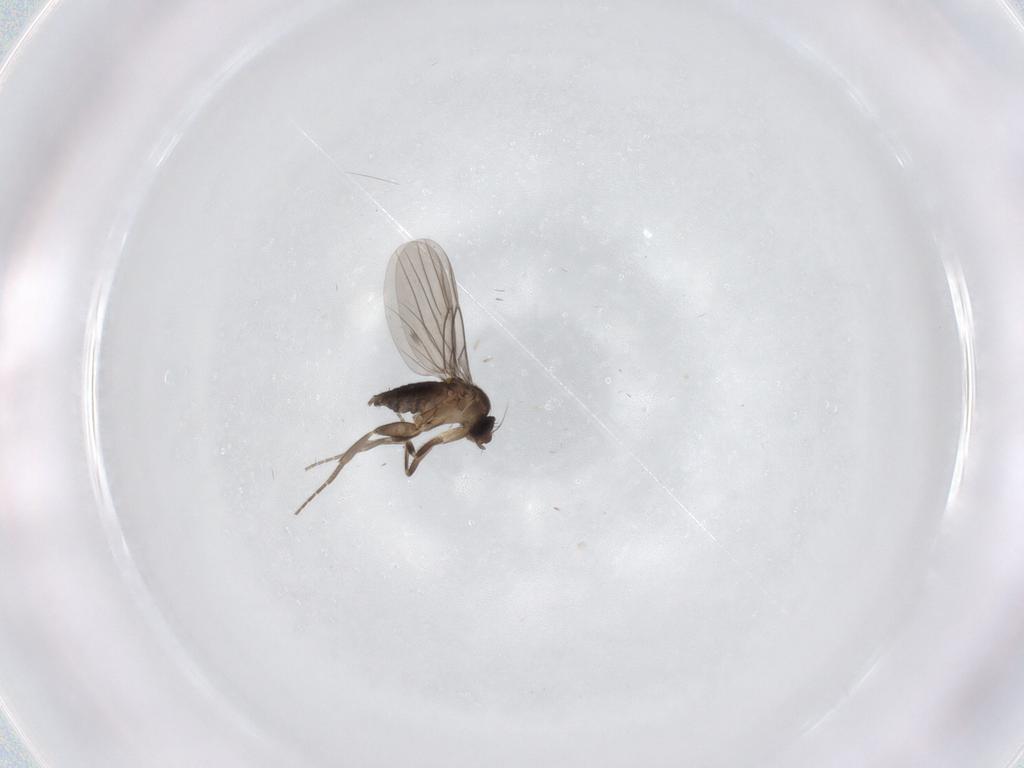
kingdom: Animalia
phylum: Arthropoda
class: Insecta
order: Diptera
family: Chironomidae
